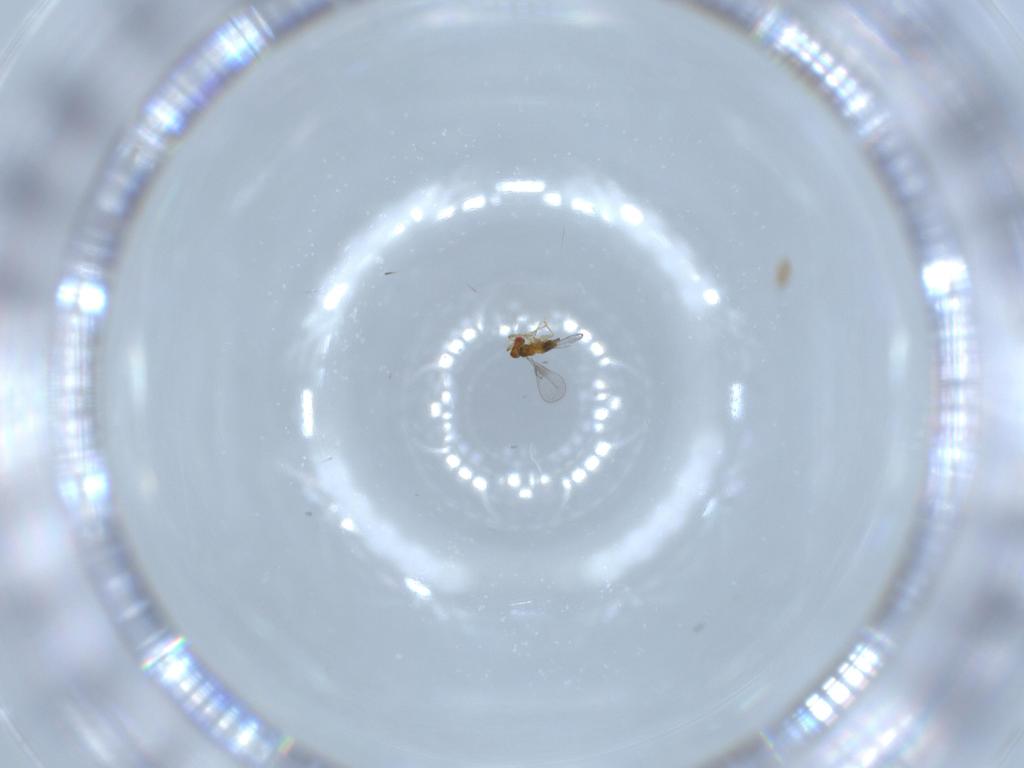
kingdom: Animalia
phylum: Arthropoda
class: Insecta
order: Hymenoptera
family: Trichogrammatidae
